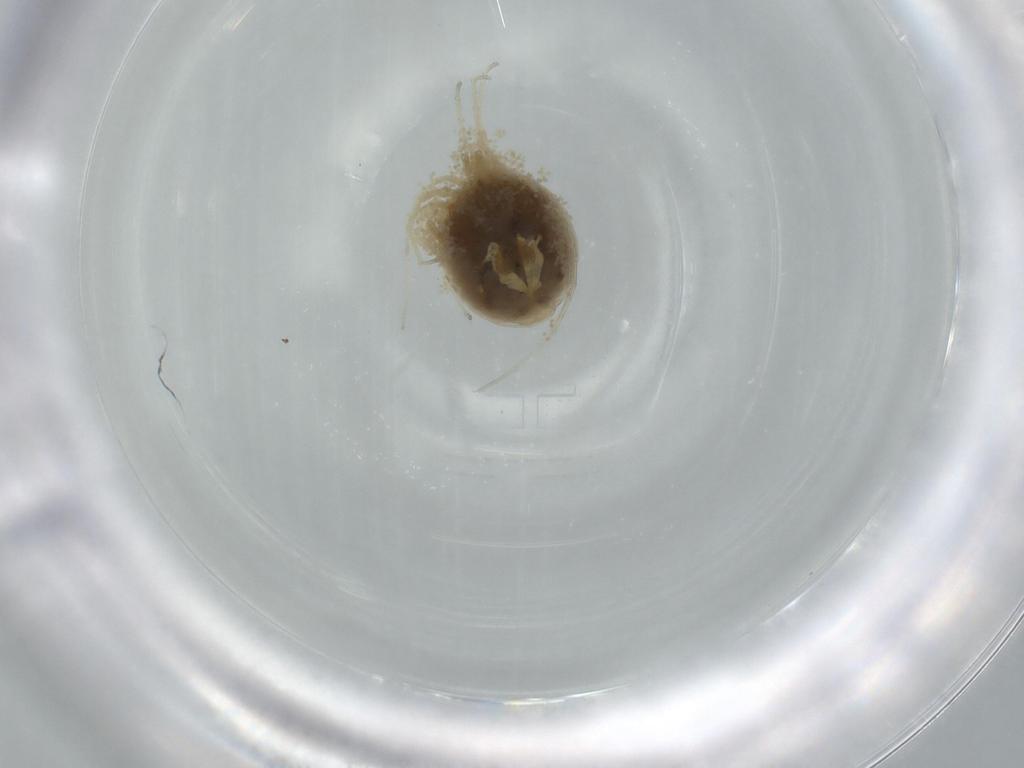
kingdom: Animalia
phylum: Arthropoda
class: Arachnida
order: Trombidiformes
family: Hygrobatidae
